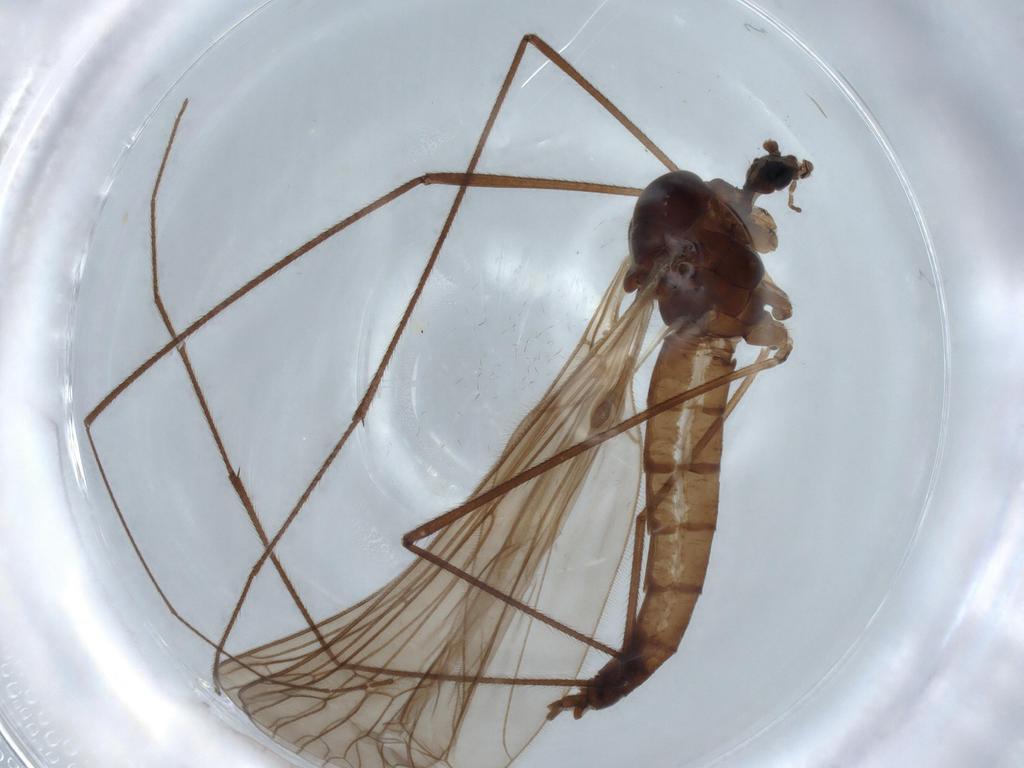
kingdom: Animalia
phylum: Arthropoda
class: Insecta
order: Diptera
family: Trichoceridae
